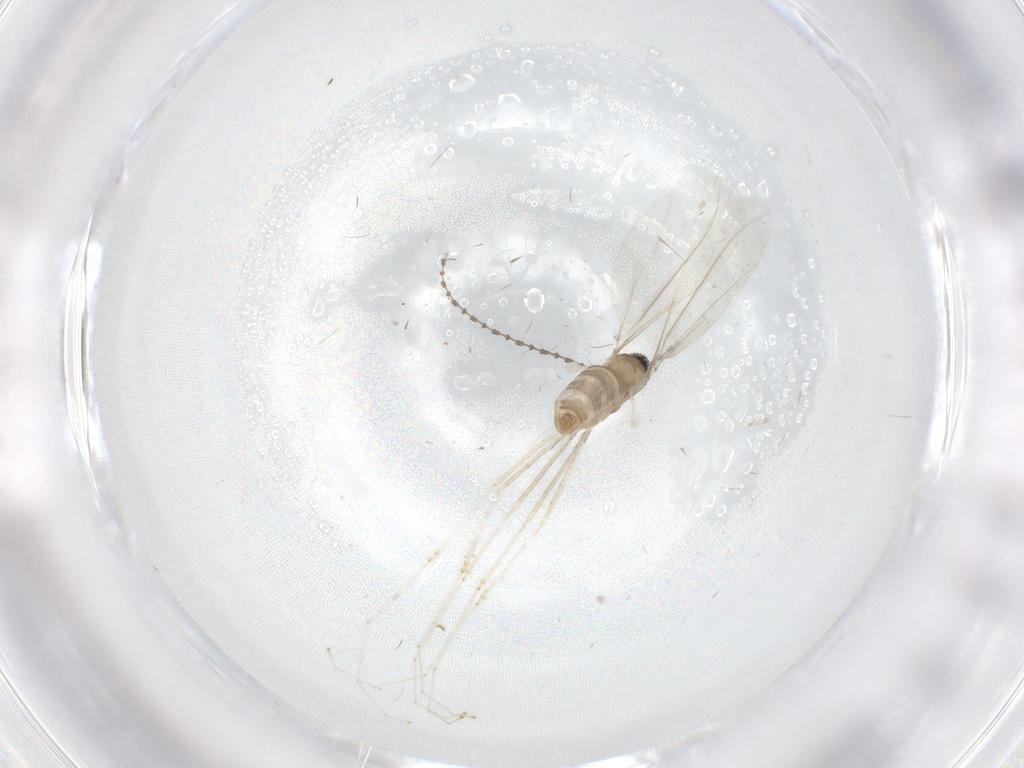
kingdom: Animalia
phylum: Arthropoda
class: Insecta
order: Diptera
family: Cecidomyiidae
